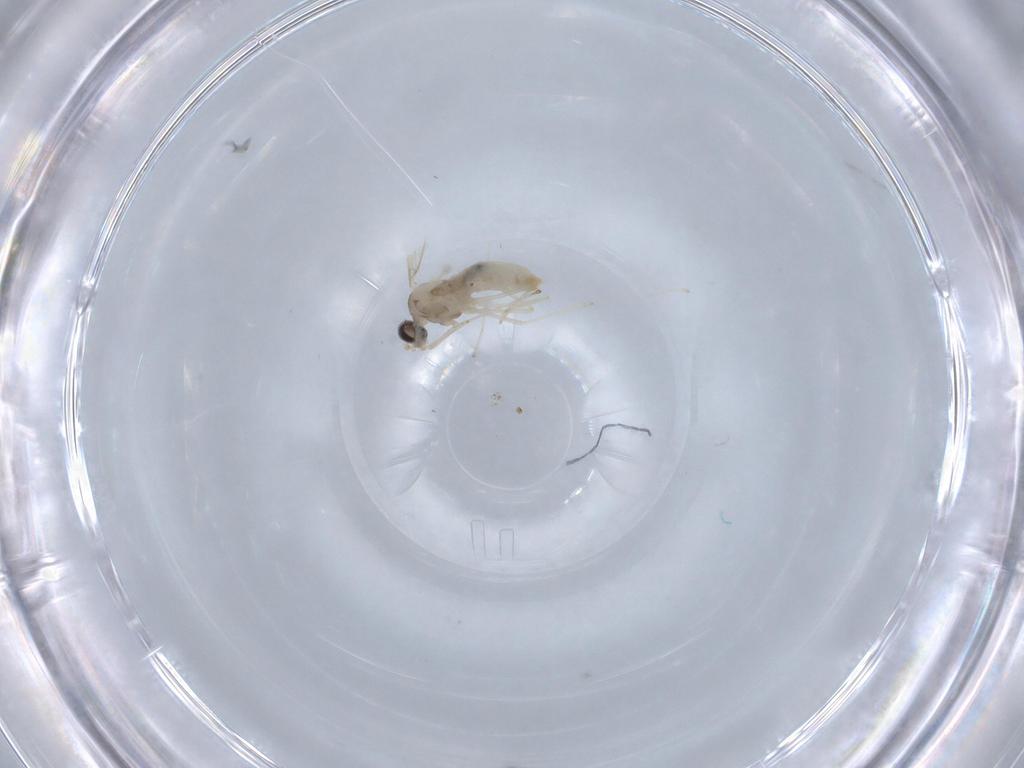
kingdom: Animalia
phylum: Arthropoda
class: Insecta
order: Diptera
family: Cecidomyiidae
